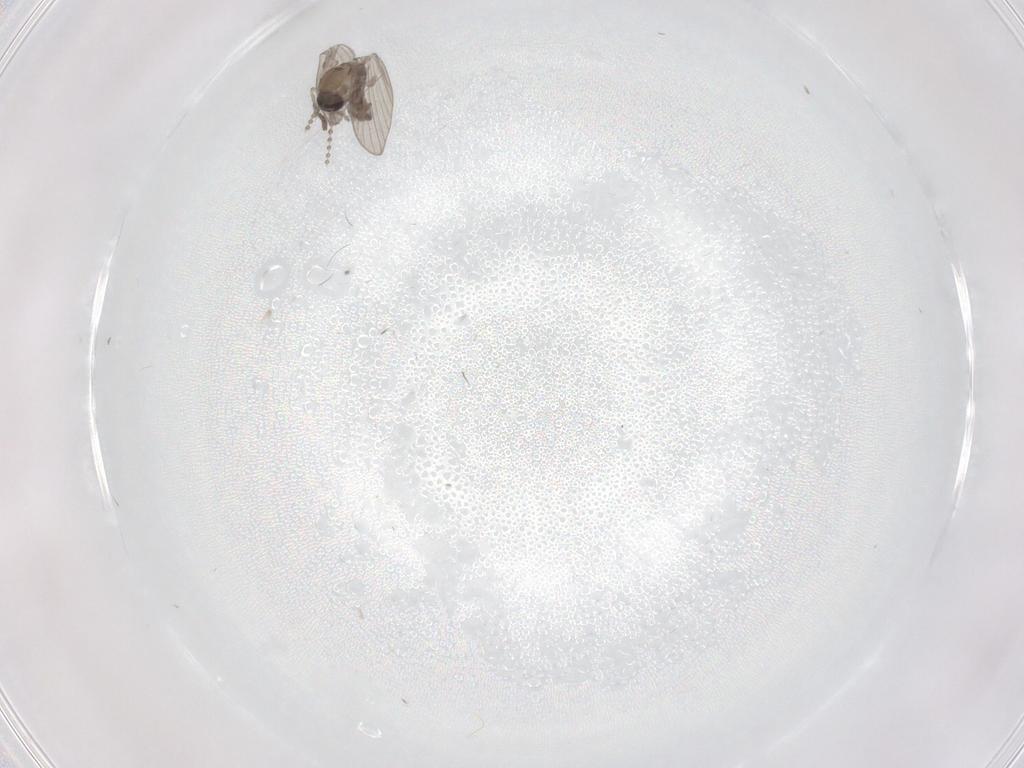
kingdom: Animalia
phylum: Arthropoda
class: Insecta
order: Diptera
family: Psychodidae
